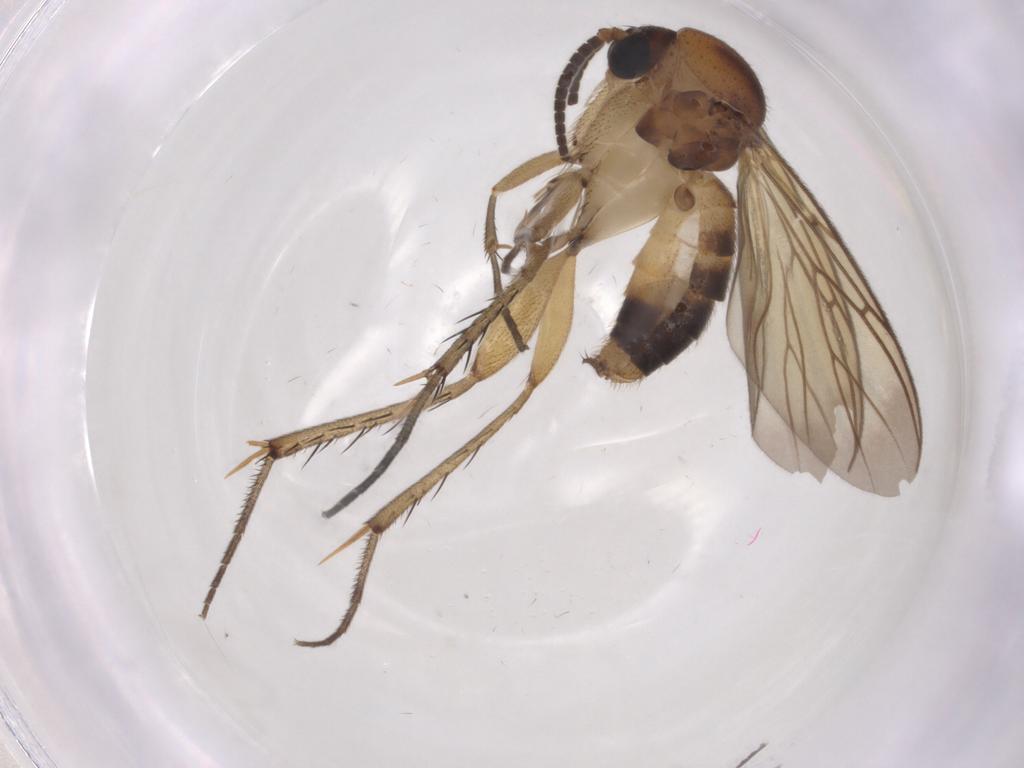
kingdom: Animalia
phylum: Arthropoda
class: Insecta
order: Diptera
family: Mycetophilidae
